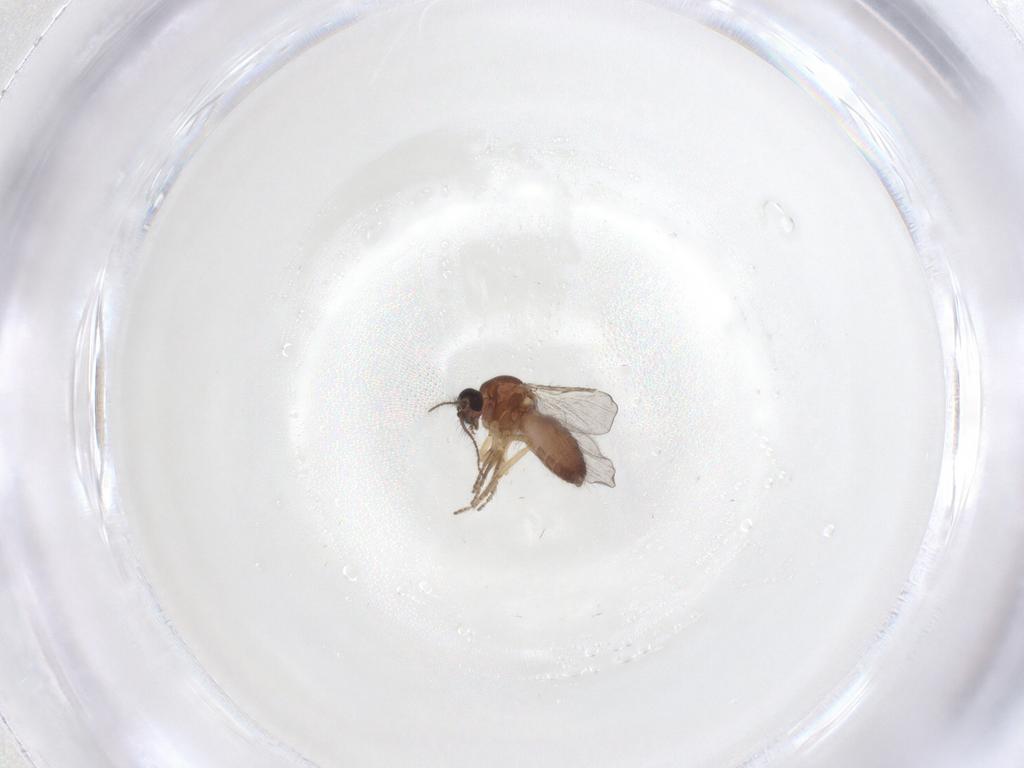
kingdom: Animalia
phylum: Arthropoda
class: Insecta
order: Diptera
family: Ceratopogonidae
